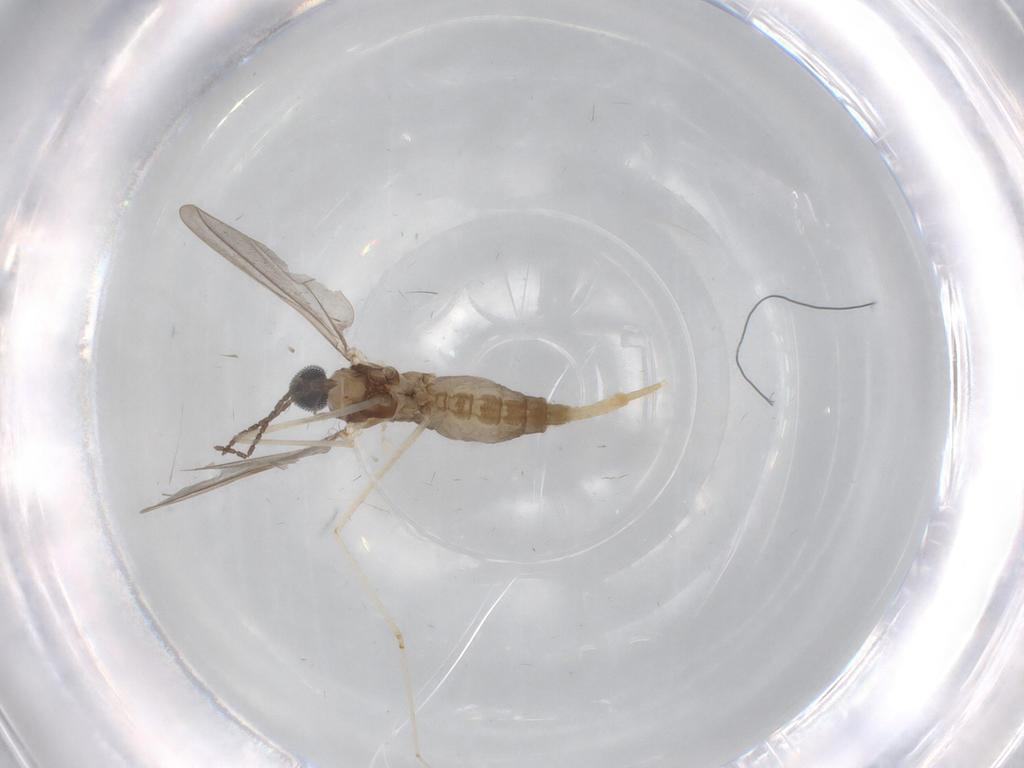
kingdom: Animalia
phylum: Arthropoda
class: Insecta
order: Diptera
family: Cecidomyiidae
